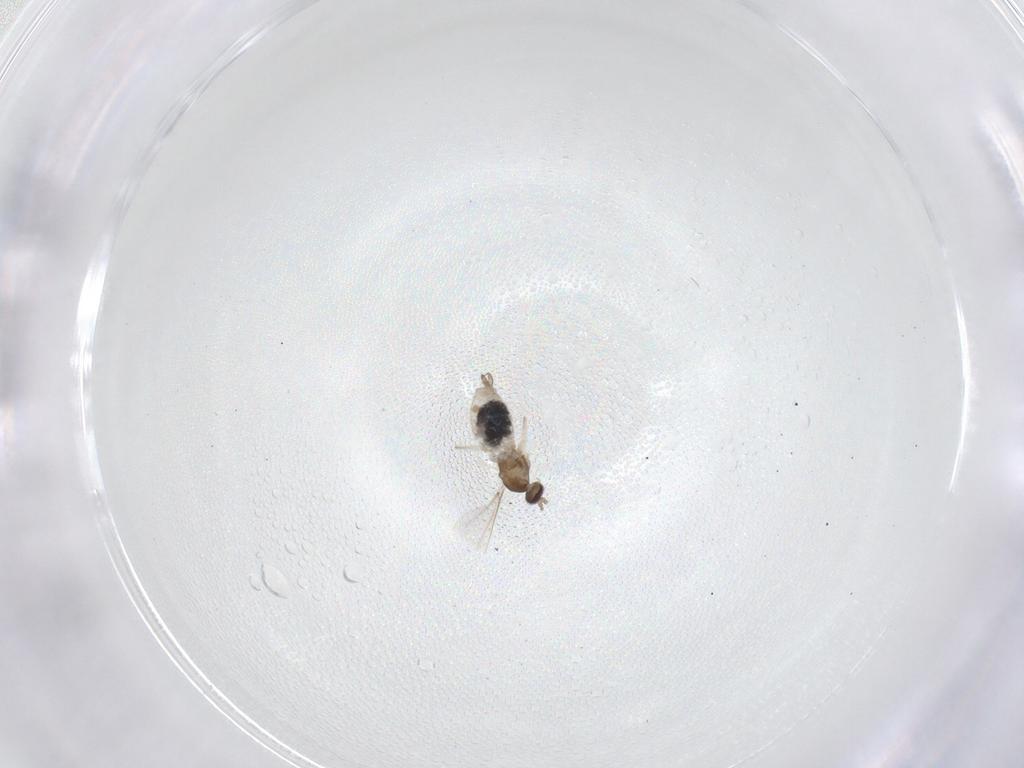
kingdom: Animalia
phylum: Arthropoda
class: Insecta
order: Diptera
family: Cecidomyiidae
